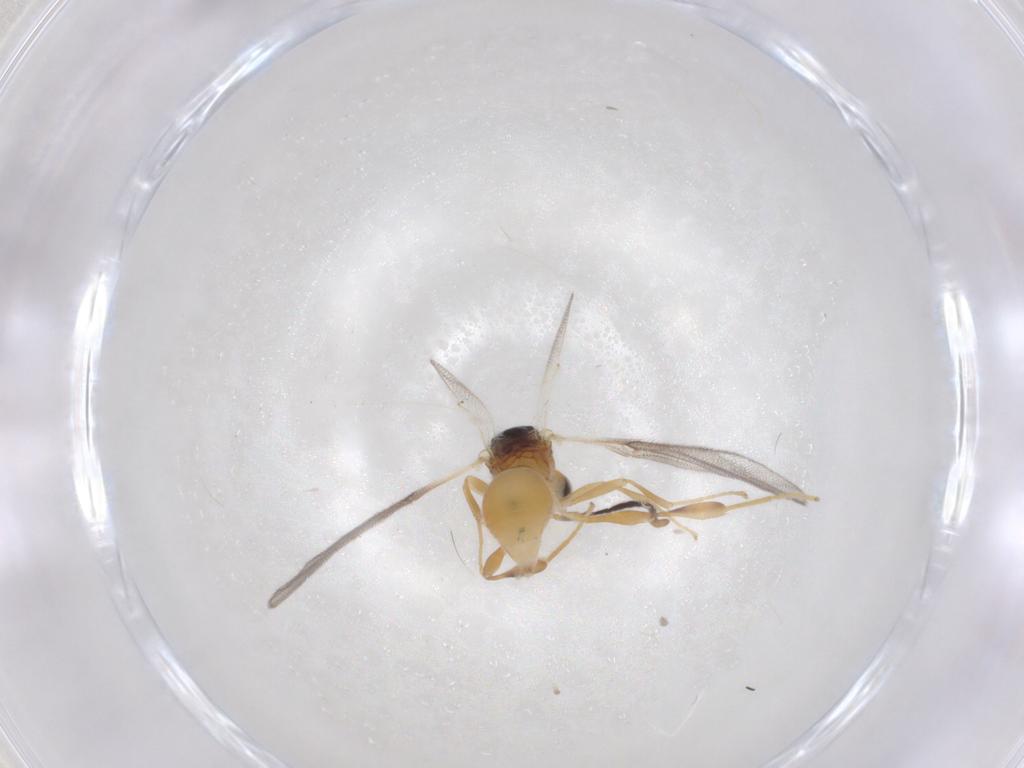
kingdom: Animalia
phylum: Arthropoda
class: Insecta
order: Hymenoptera
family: Diapriidae
